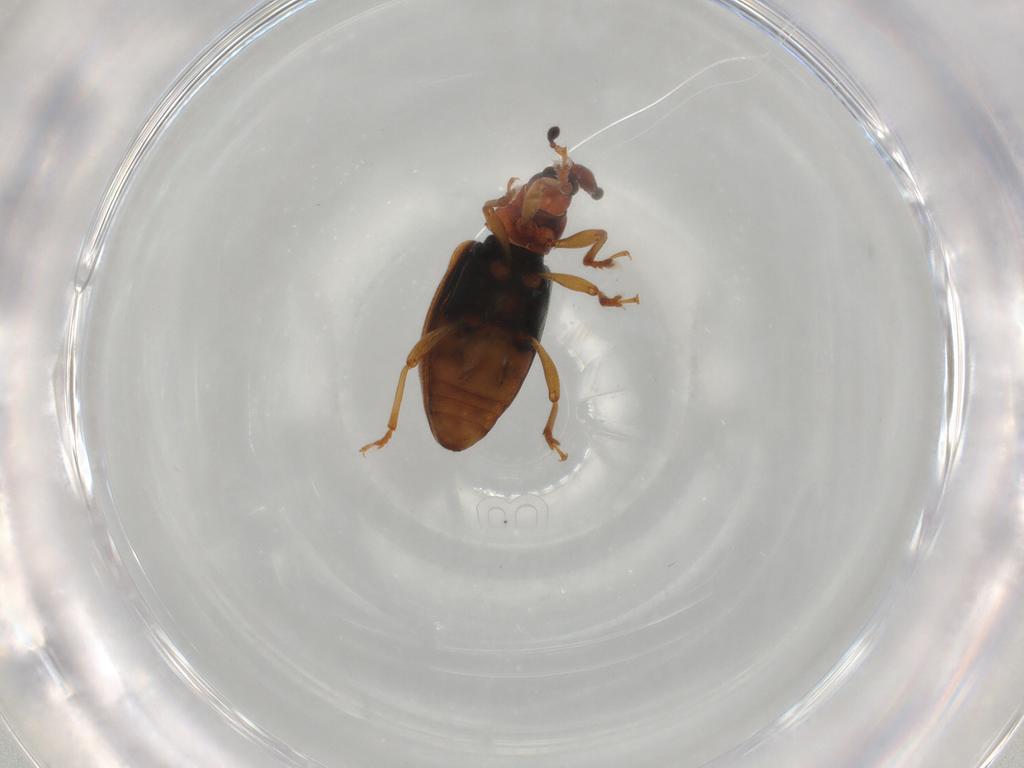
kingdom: Animalia
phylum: Arthropoda
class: Insecta
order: Coleoptera
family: Curculionidae
